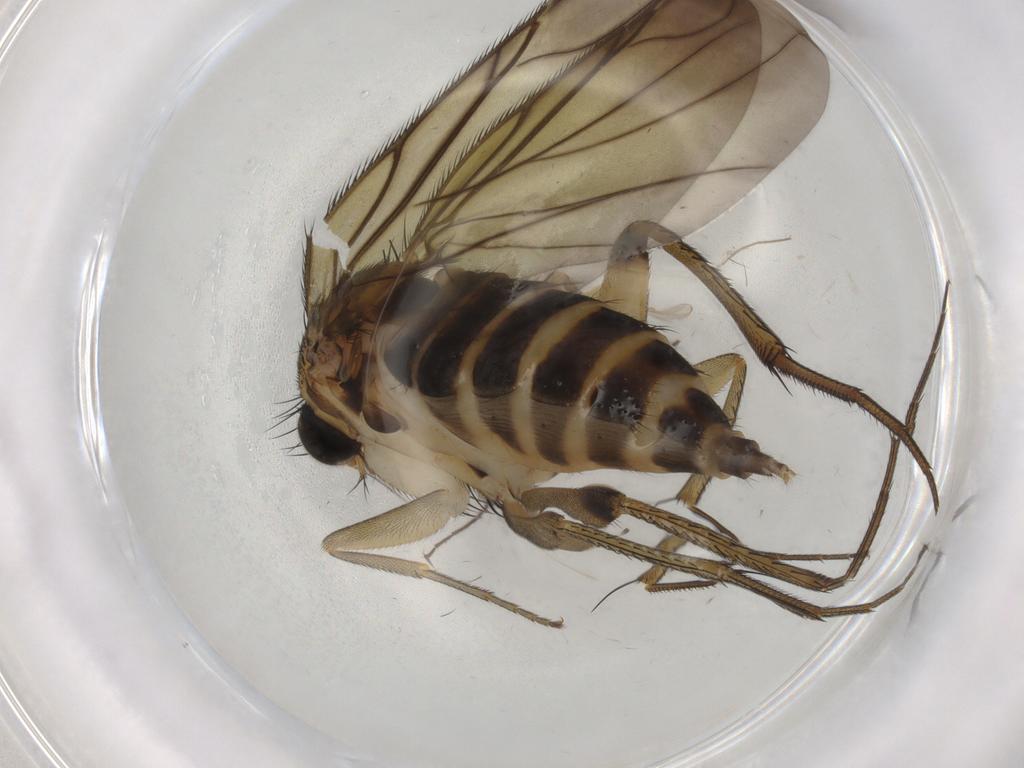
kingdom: Animalia
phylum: Arthropoda
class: Insecta
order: Diptera
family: Phoridae
